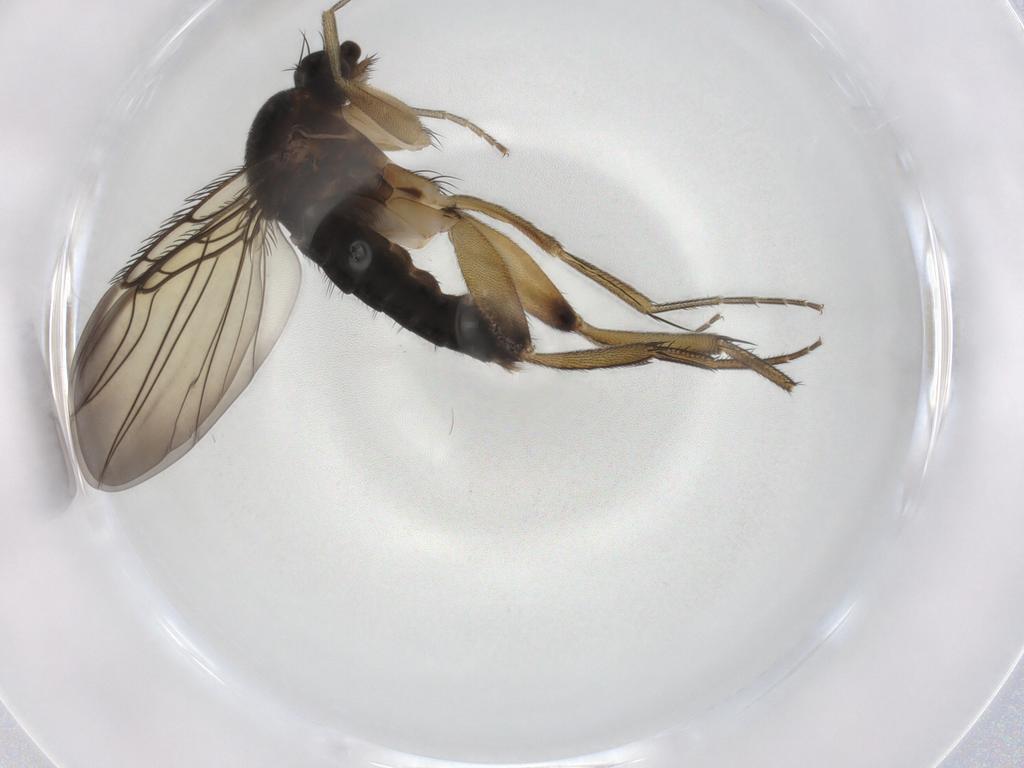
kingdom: Animalia
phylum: Arthropoda
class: Insecta
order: Diptera
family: Phoridae
